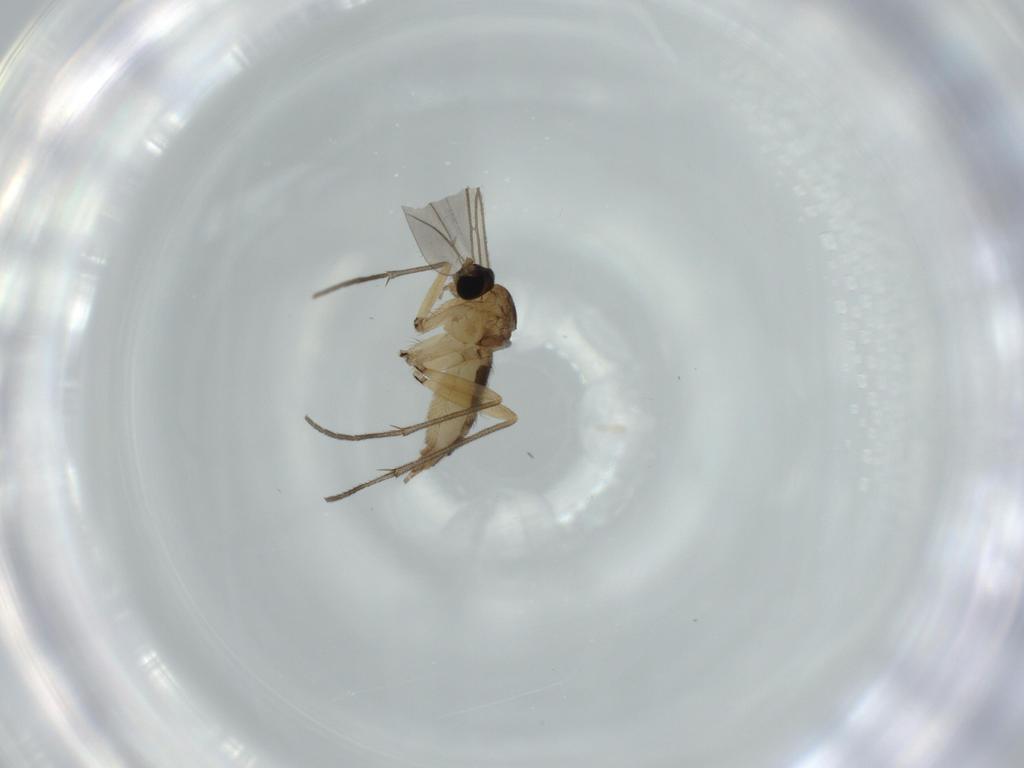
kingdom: Animalia
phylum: Arthropoda
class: Insecta
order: Diptera
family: Sciaridae
